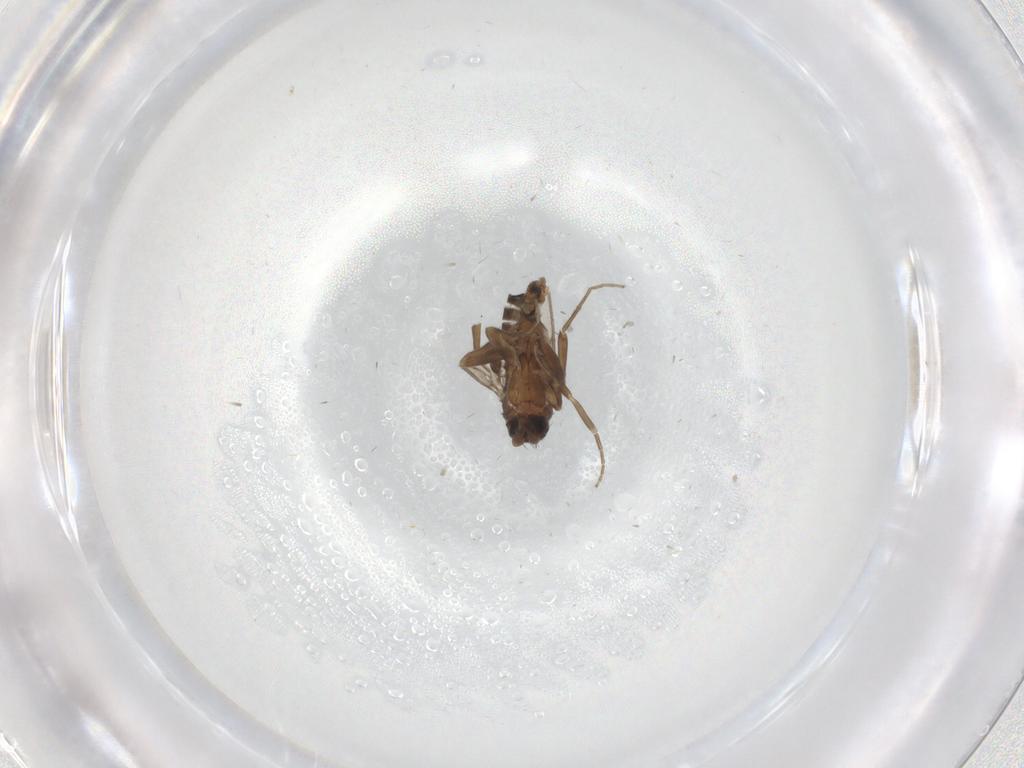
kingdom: Animalia
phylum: Arthropoda
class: Insecta
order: Diptera
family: Phoridae
